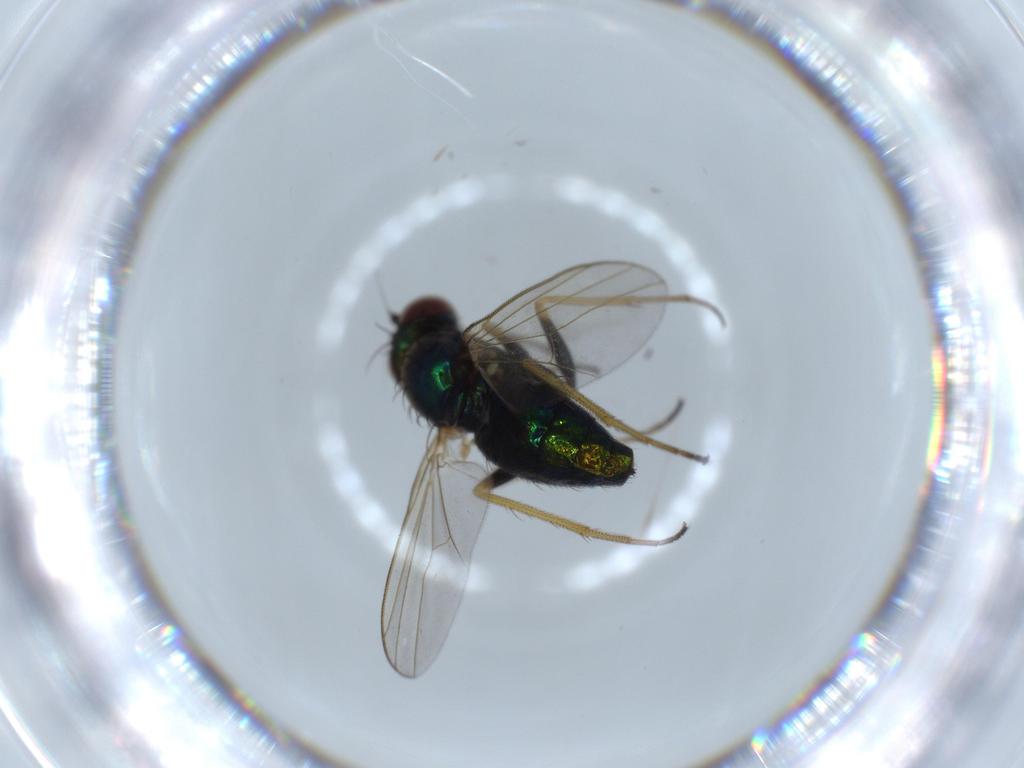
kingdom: Animalia
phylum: Arthropoda
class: Insecta
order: Diptera
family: Dolichopodidae
